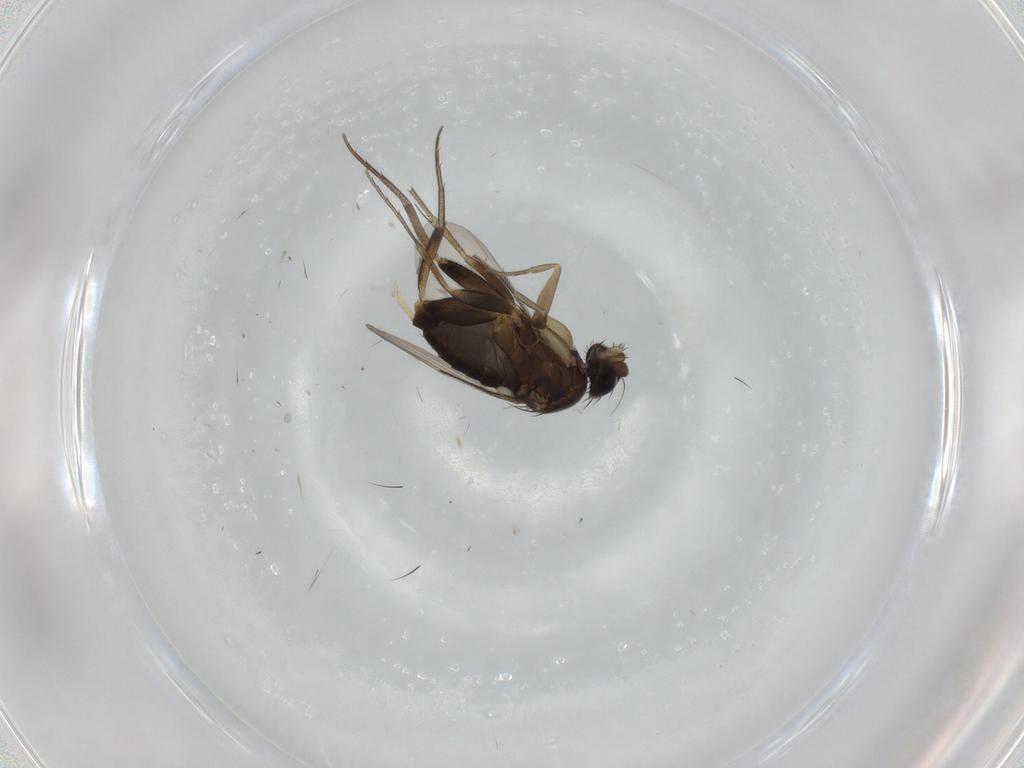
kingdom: Animalia
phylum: Arthropoda
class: Insecta
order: Diptera
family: Phoridae
